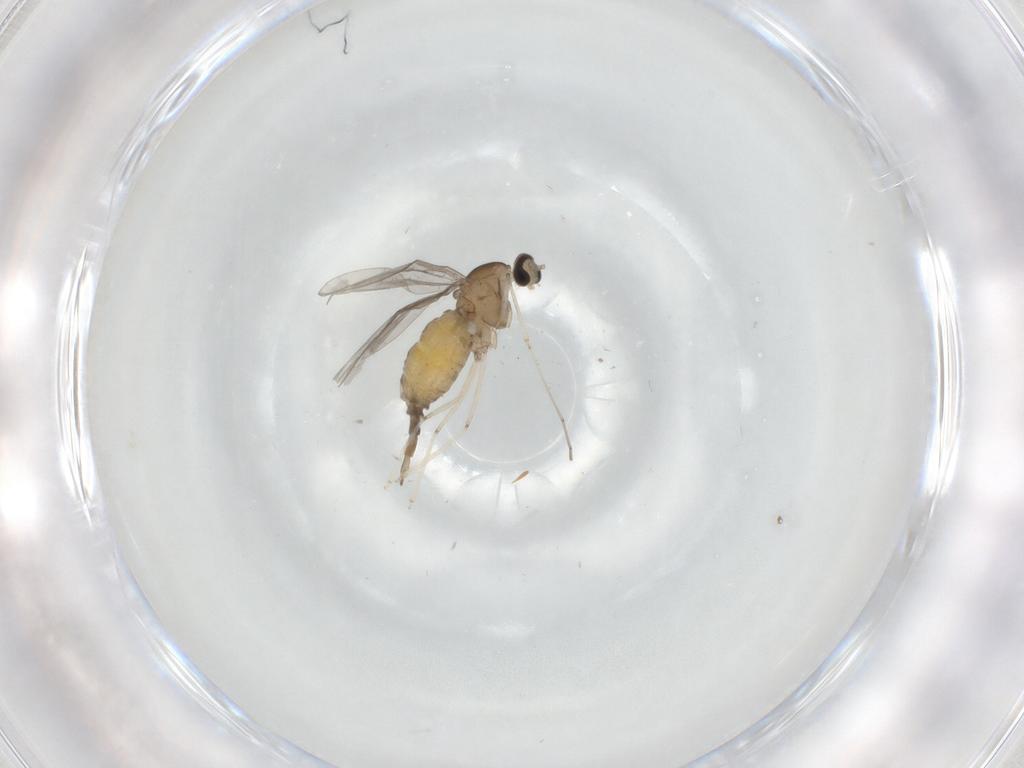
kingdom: Animalia
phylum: Arthropoda
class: Insecta
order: Diptera
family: Cecidomyiidae
